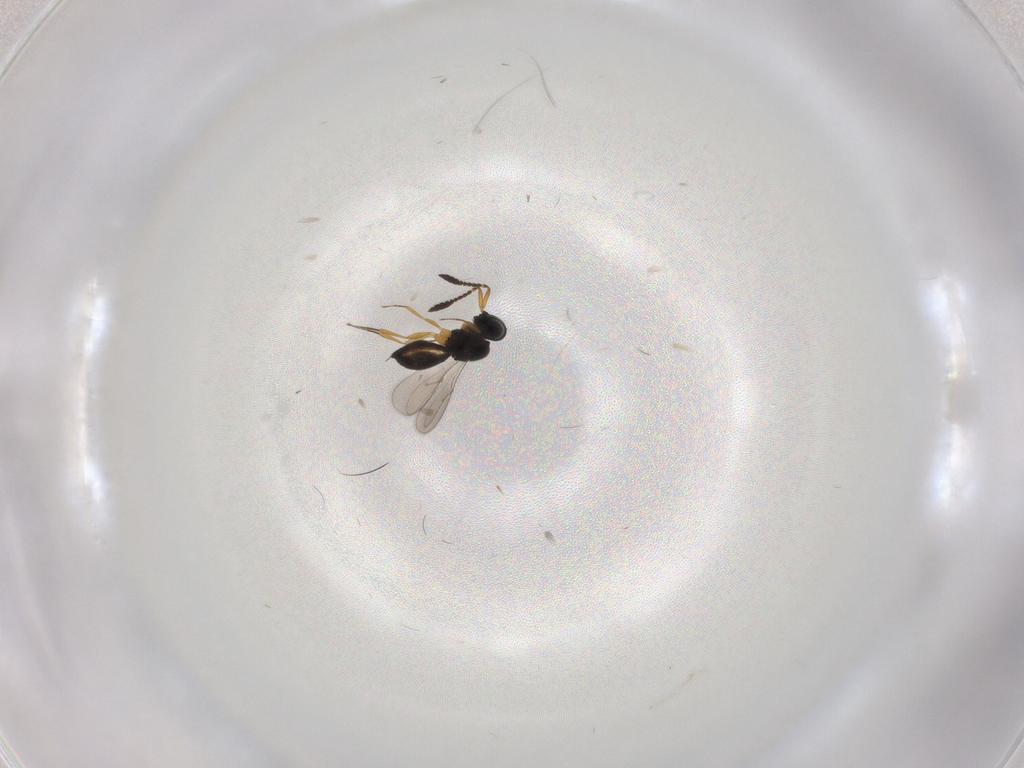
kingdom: Animalia
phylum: Arthropoda
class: Insecta
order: Hymenoptera
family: Scelionidae
